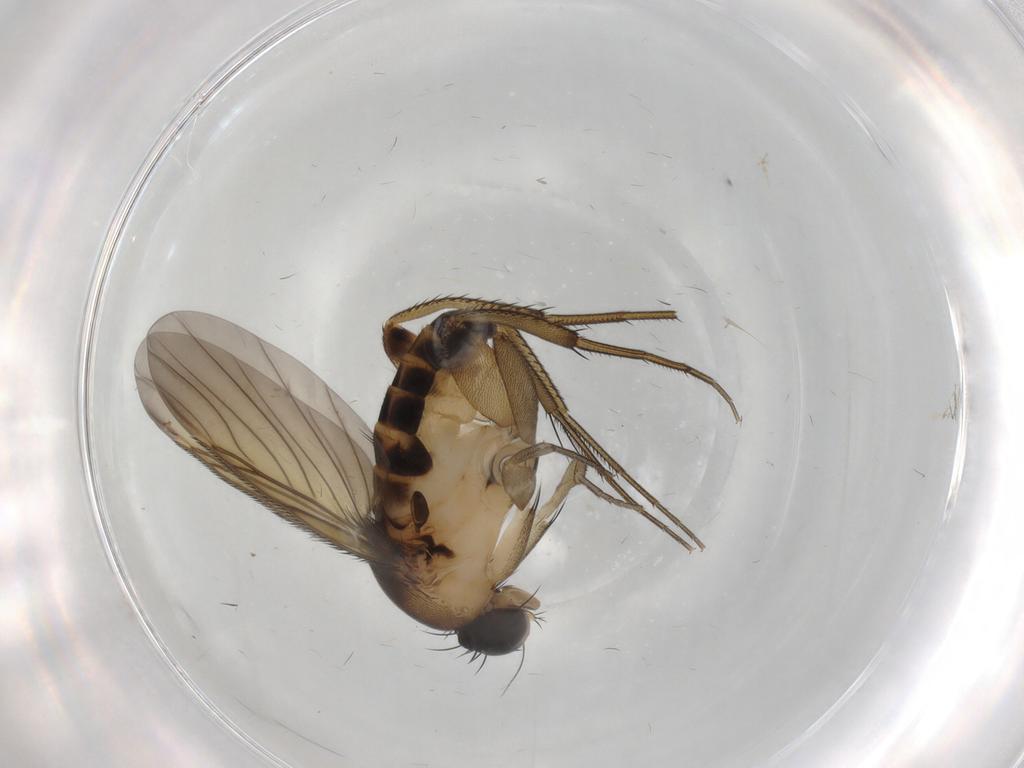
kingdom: Animalia
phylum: Arthropoda
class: Insecta
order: Diptera
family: Phoridae
